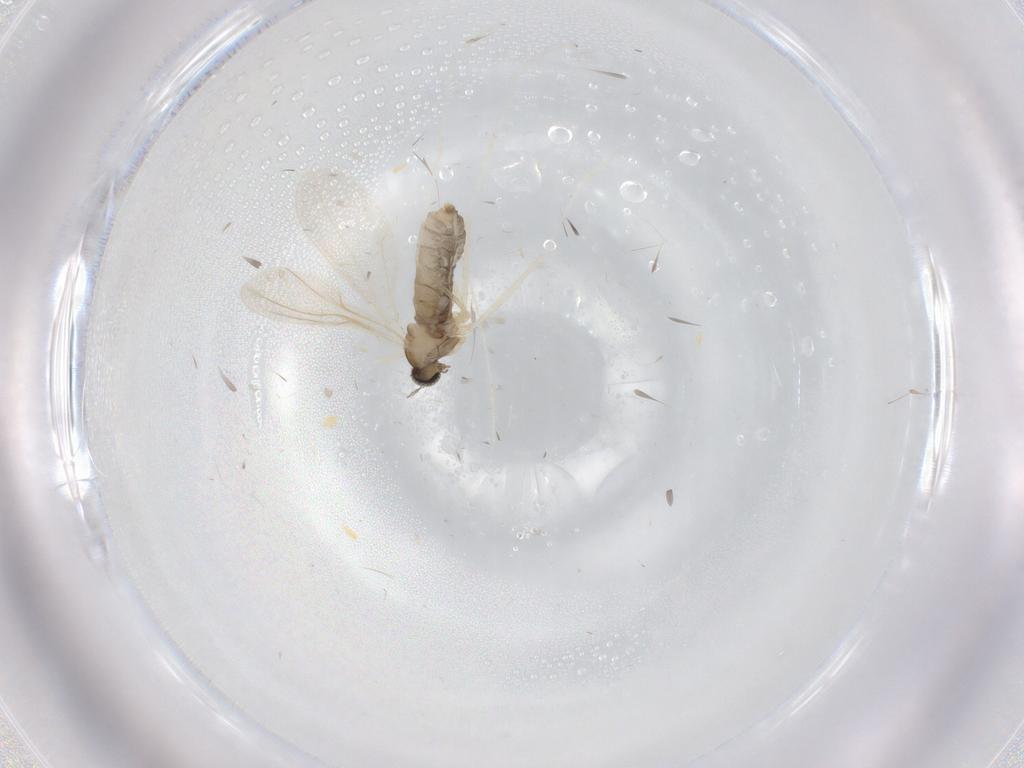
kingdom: Animalia
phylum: Arthropoda
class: Insecta
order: Diptera
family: Cecidomyiidae
